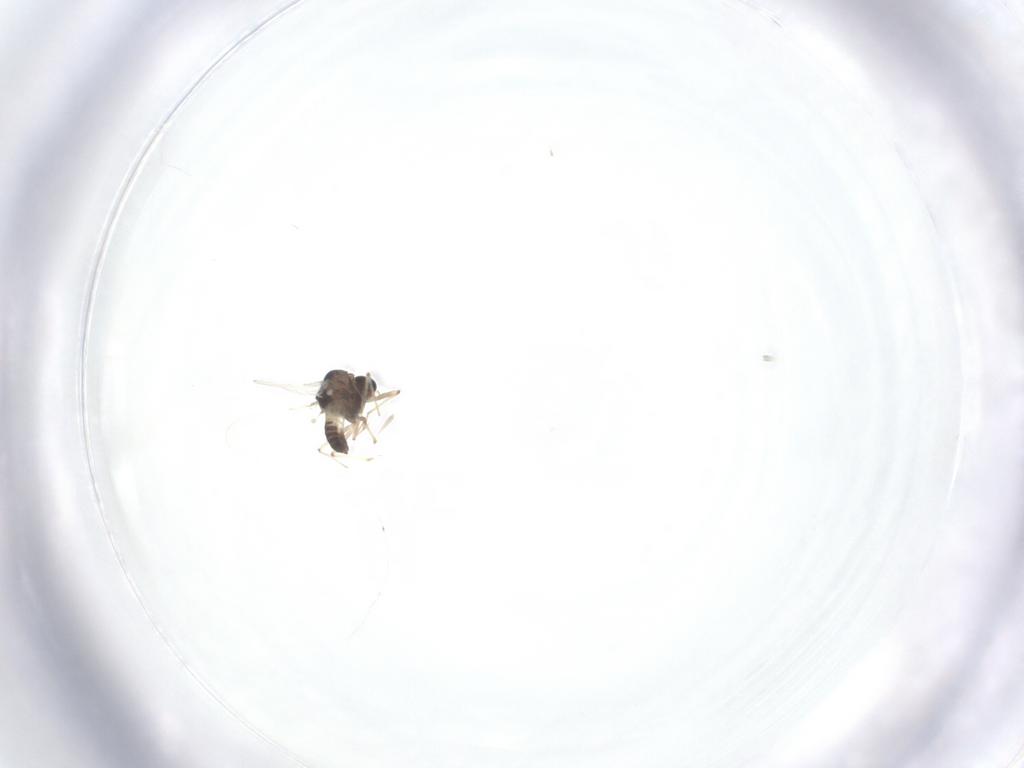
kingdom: Animalia
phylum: Arthropoda
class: Insecta
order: Diptera
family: Chironomidae
